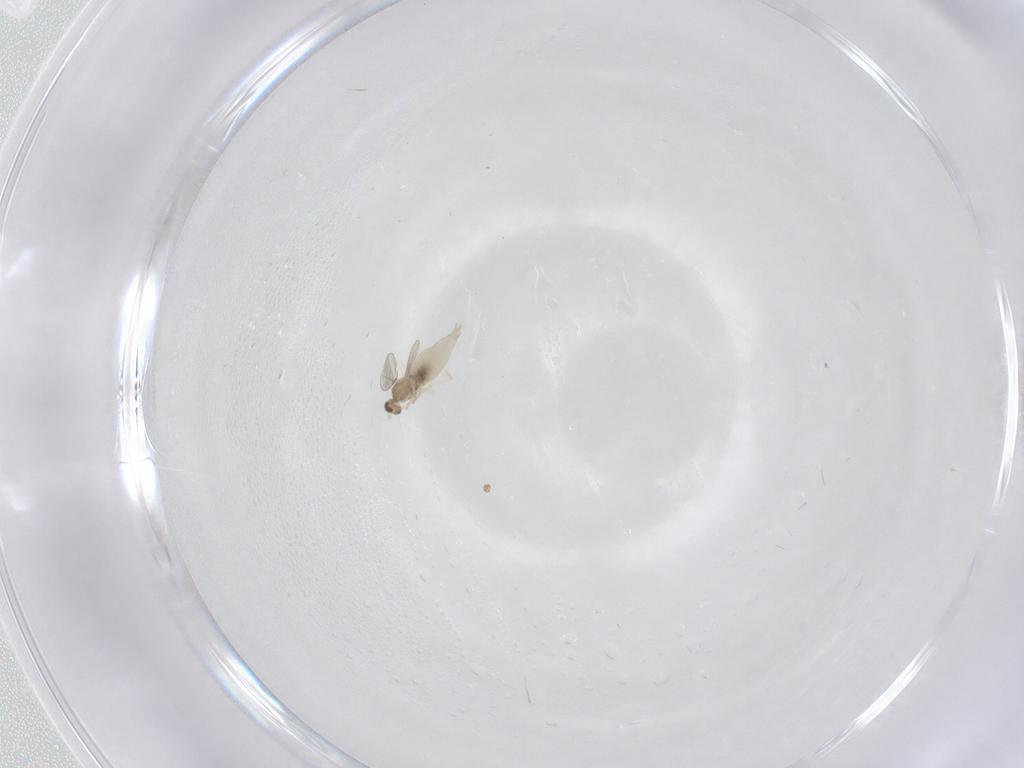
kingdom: Animalia
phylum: Arthropoda
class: Insecta
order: Diptera
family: Cecidomyiidae
